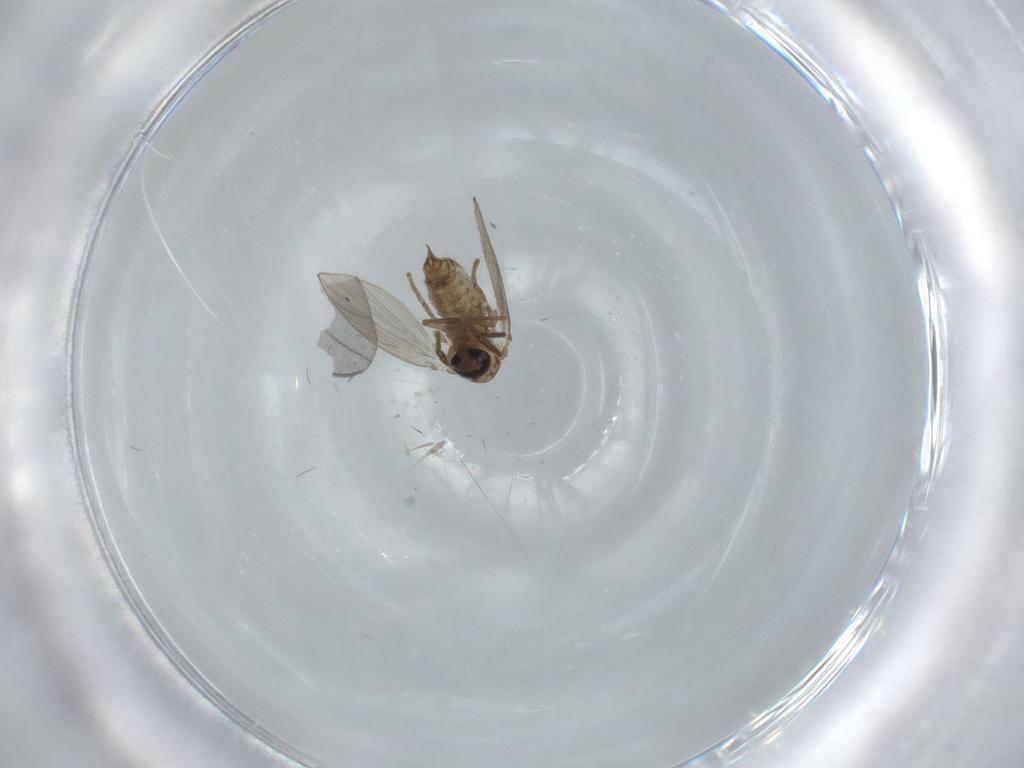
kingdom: Animalia
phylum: Arthropoda
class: Insecta
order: Diptera
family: Psychodidae
